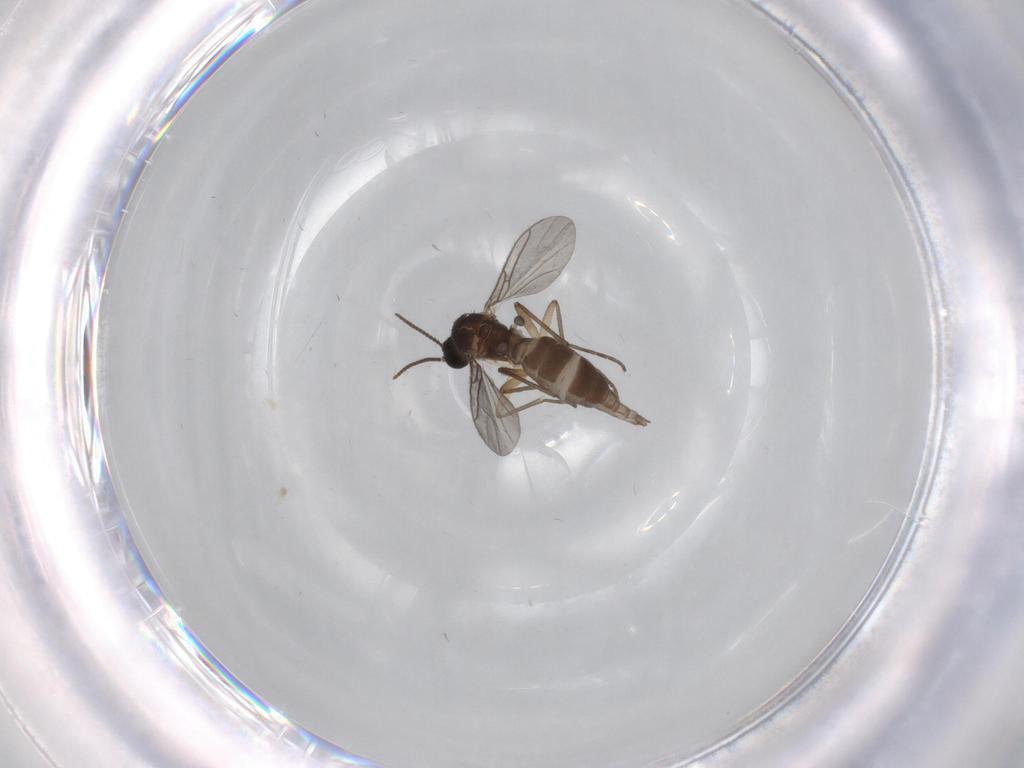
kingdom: Animalia
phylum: Arthropoda
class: Insecta
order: Diptera
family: Sciaridae
